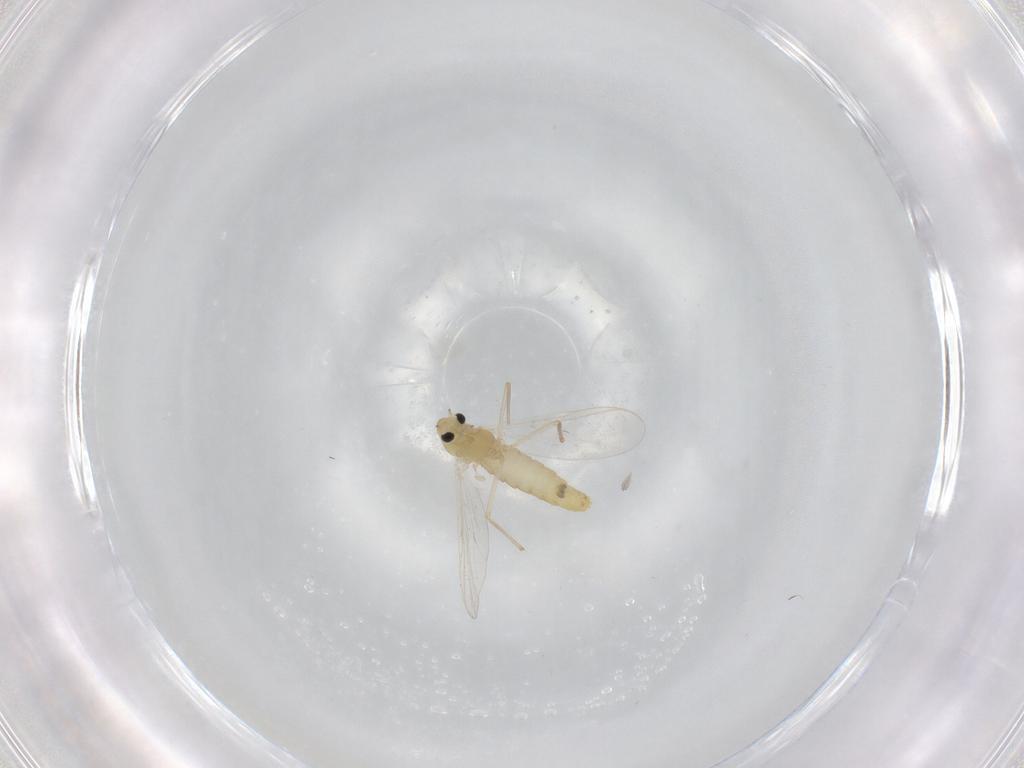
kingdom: Animalia
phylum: Arthropoda
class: Insecta
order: Diptera
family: Chironomidae
